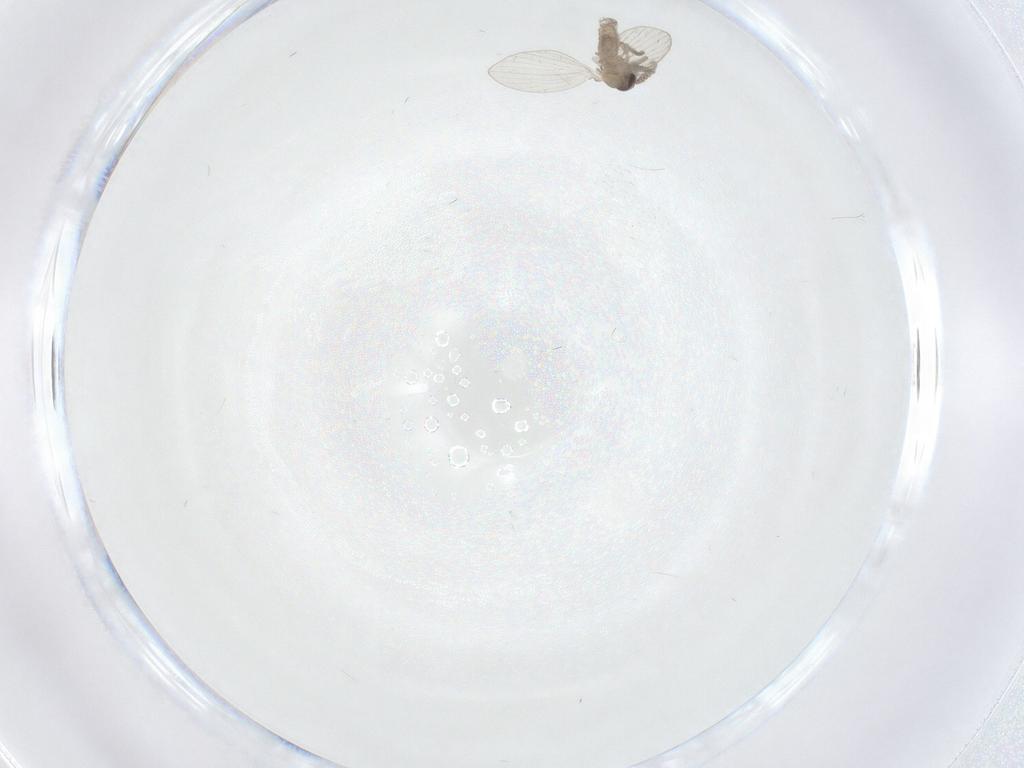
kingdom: Animalia
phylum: Arthropoda
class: Insecta
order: Diptera
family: Psychodidae
